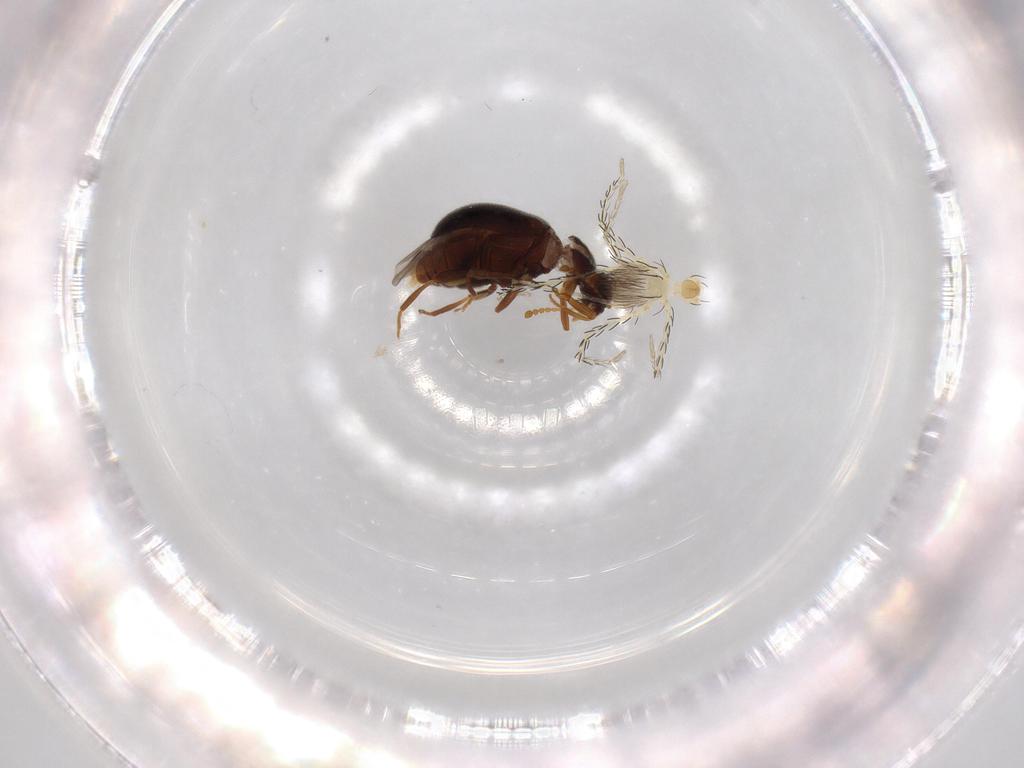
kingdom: Animalia
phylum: Arthropoda
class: Insecta
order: Coleoptera
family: Aderidae
